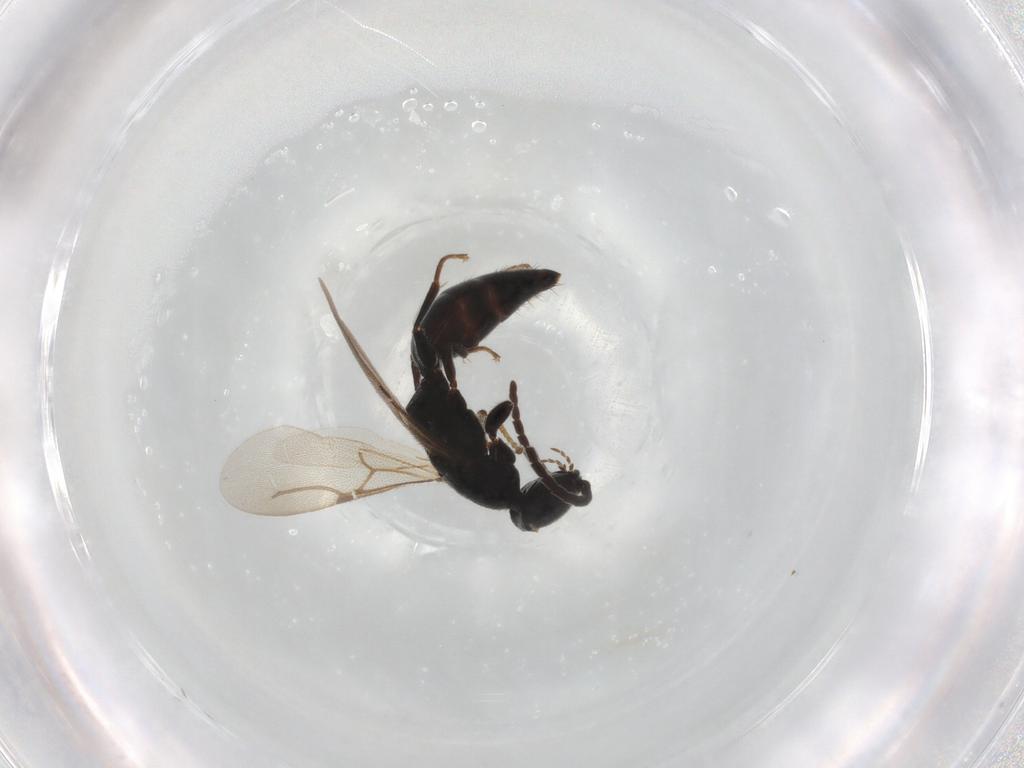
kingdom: Animalia
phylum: Arthropoda
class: Insecta
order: Hymenoptera
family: Bethylidae
